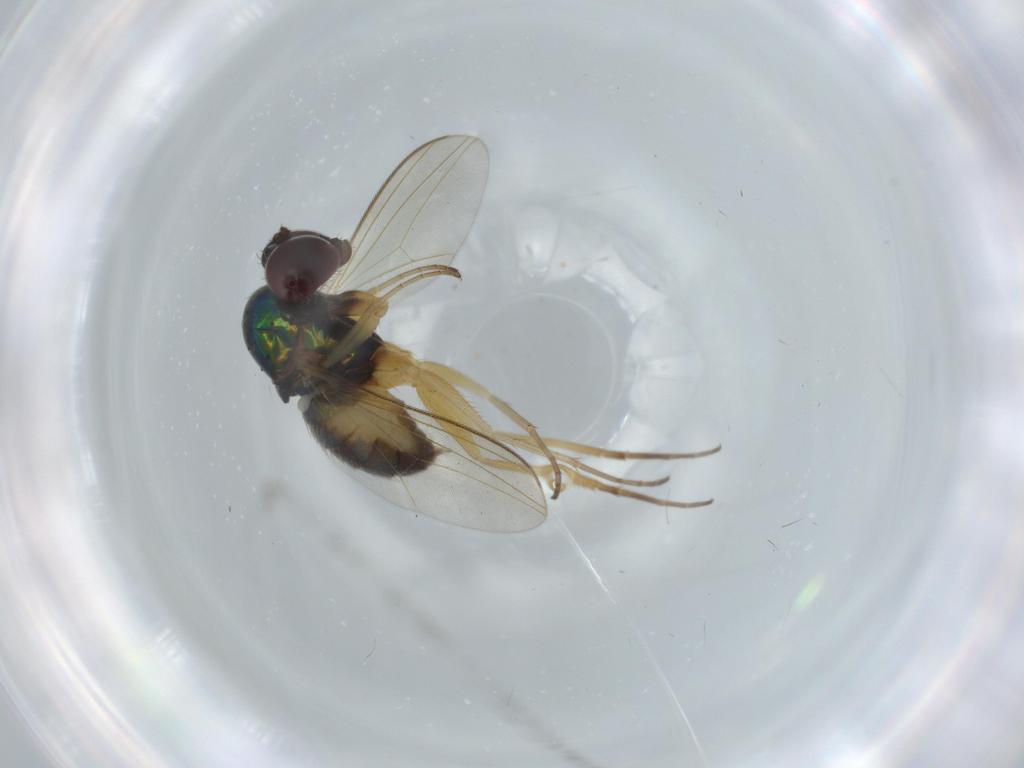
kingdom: Animalia
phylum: Arthropoda
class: Insecta
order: Diptera
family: Dolichopodidae
